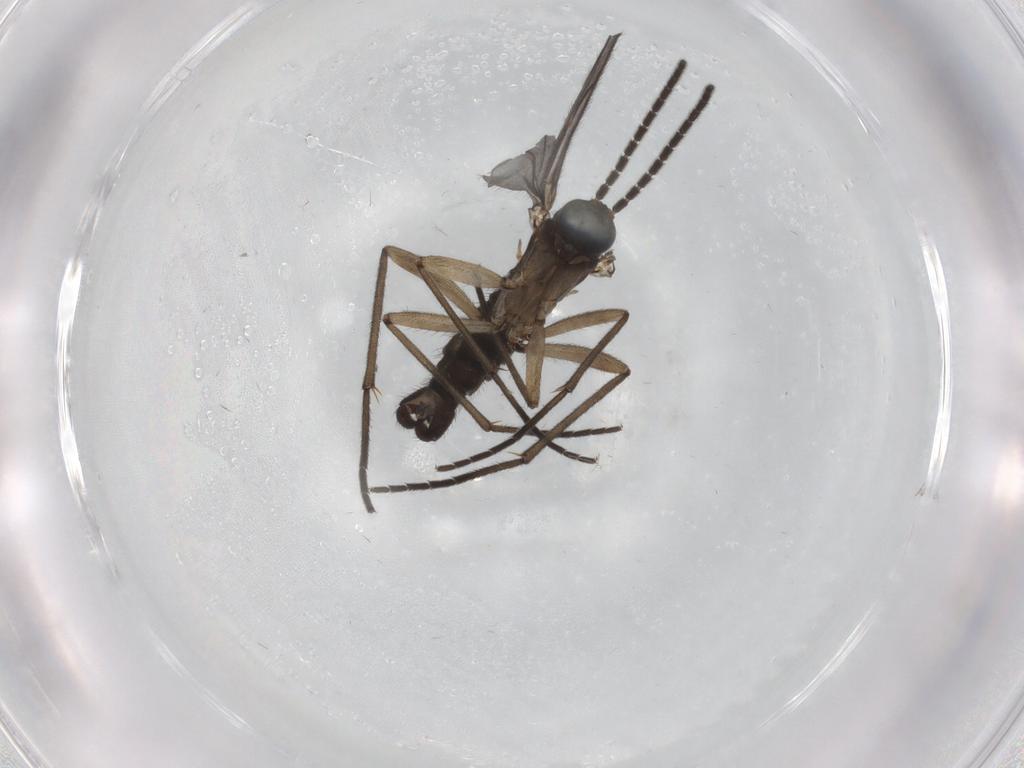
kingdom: Animalia
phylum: Arthropoda
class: Insecta
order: Diptera
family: Sciaridae
